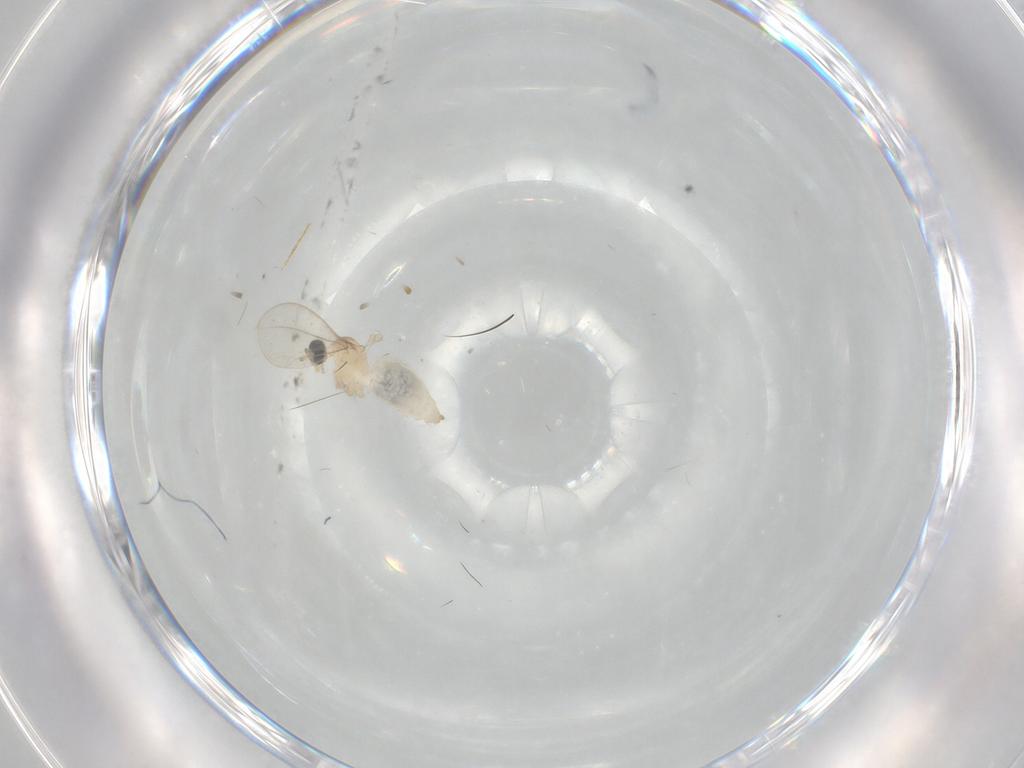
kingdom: Animalia
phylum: Arthropoda
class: Insecta
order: Diptera
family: Cecidomyiidae
